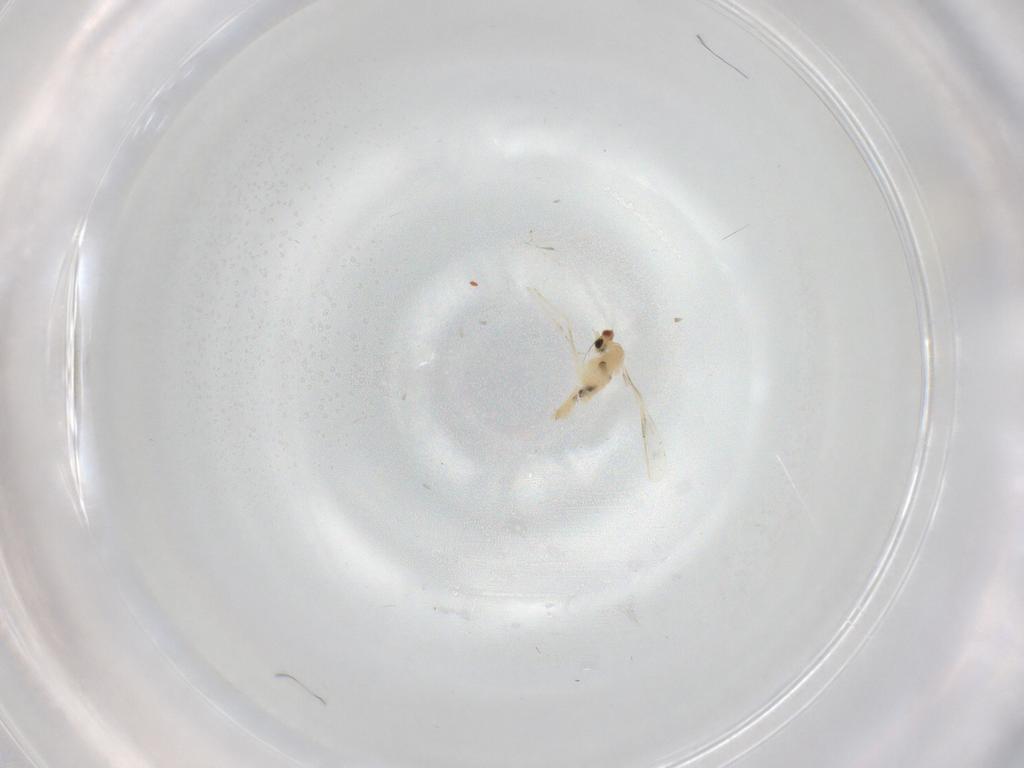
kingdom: Animalia
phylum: Arthropoda
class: Insecta
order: Diptera
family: Cecidomyiidae
